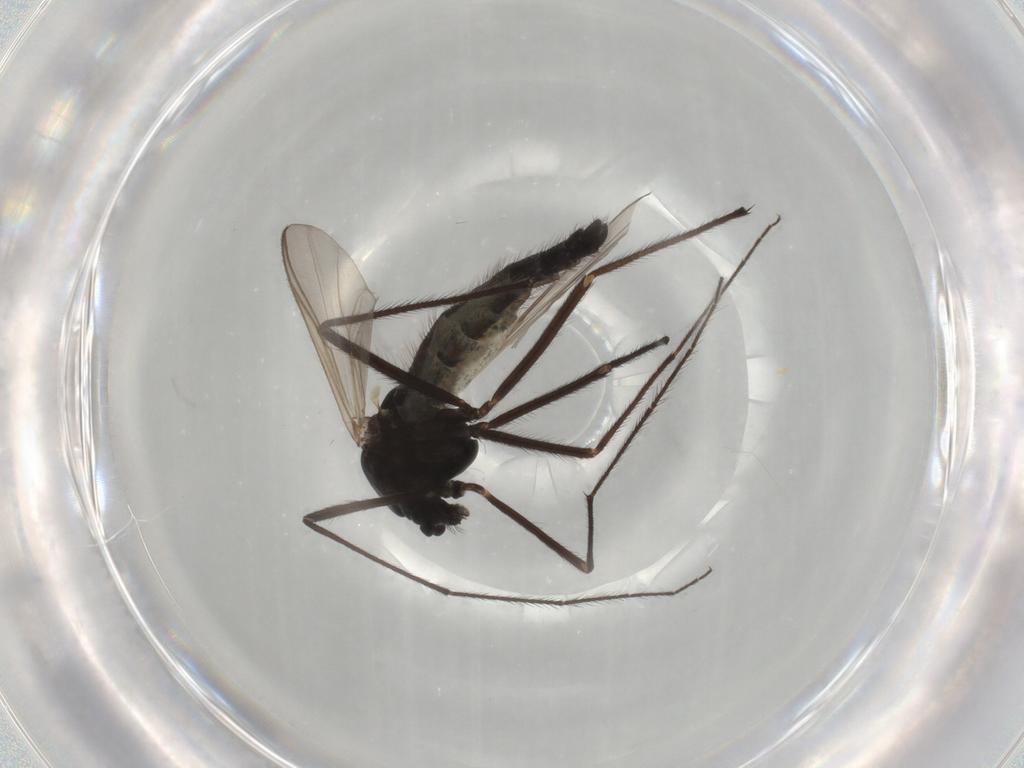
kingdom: Animalia
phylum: Arthropoda
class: Insecta
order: Diptera
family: Psychodidae
